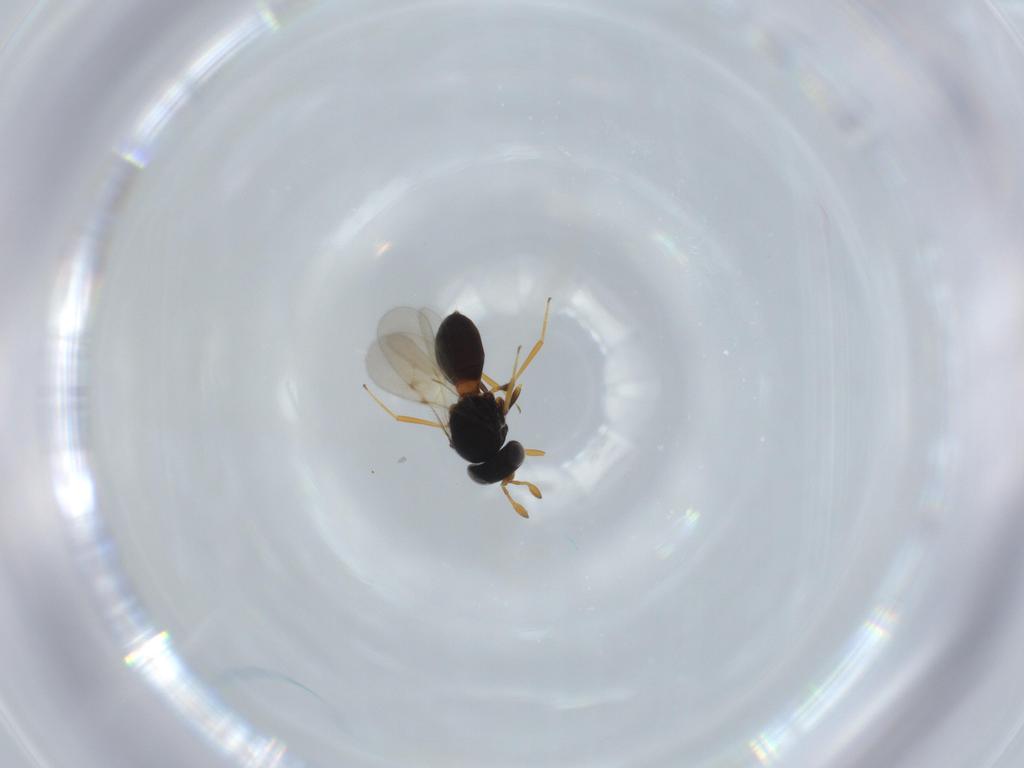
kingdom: Animalia
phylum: Arthropoda
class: Insecta
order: Hymenoptera
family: Scelionidae
